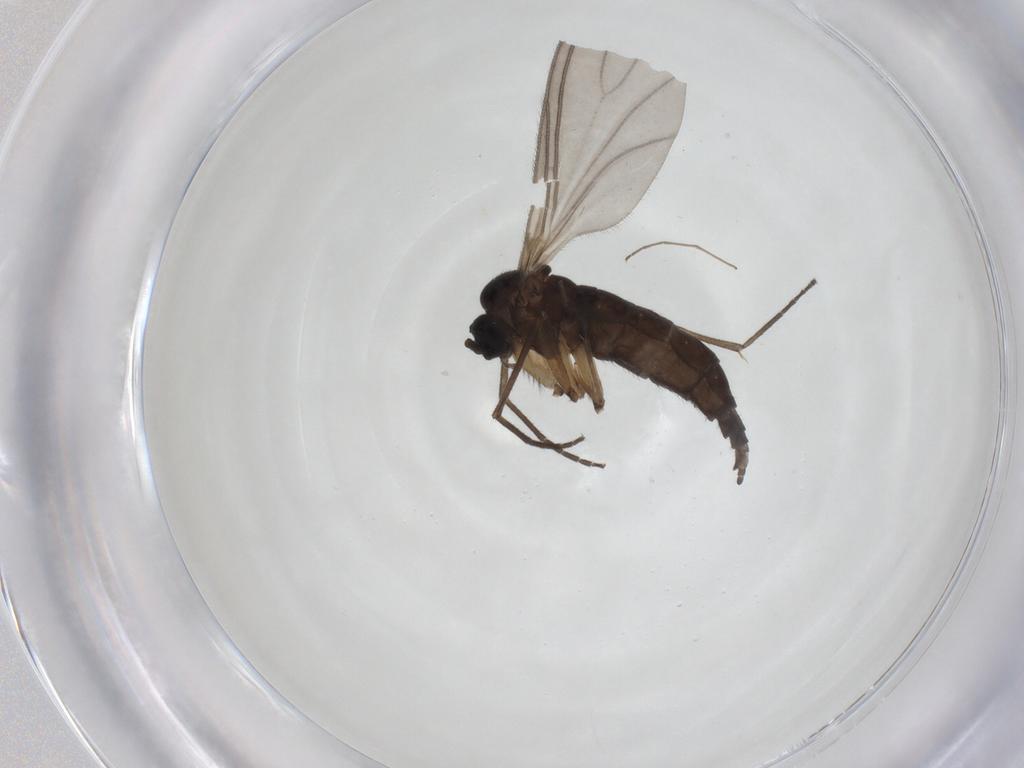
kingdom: Animalia
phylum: Arthropoda
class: Insecta
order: Diptera
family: Sciaridae
